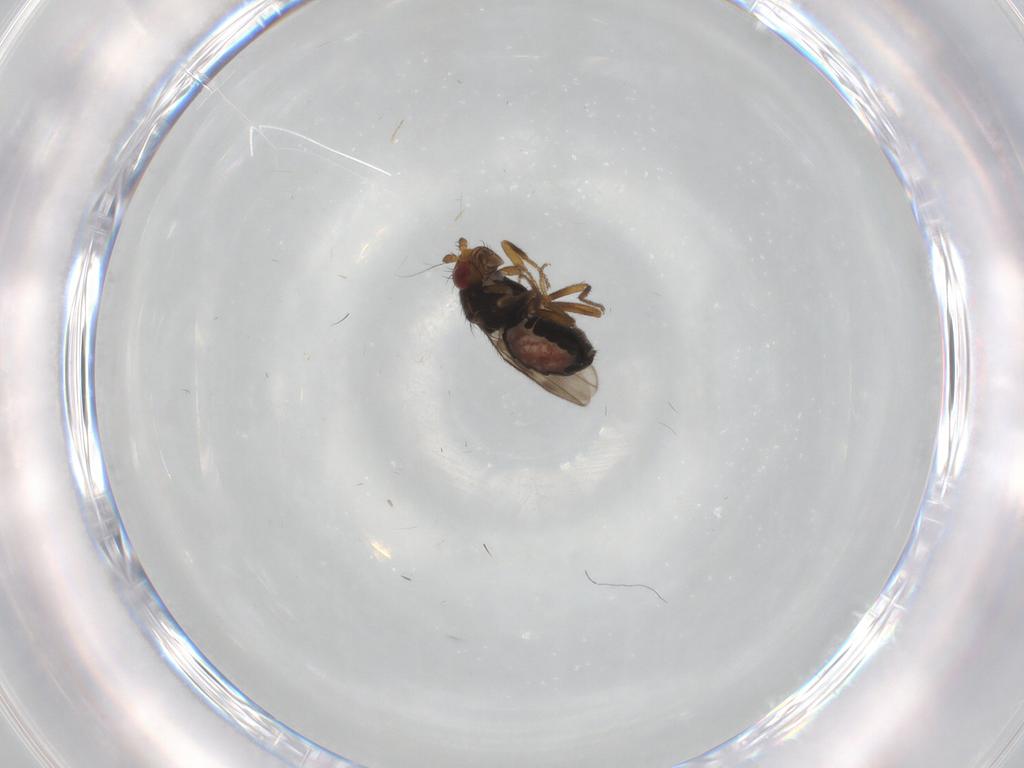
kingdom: Animalia
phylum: Arthropoda
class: Insecta
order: Diptera
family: Sphaeroceridae
